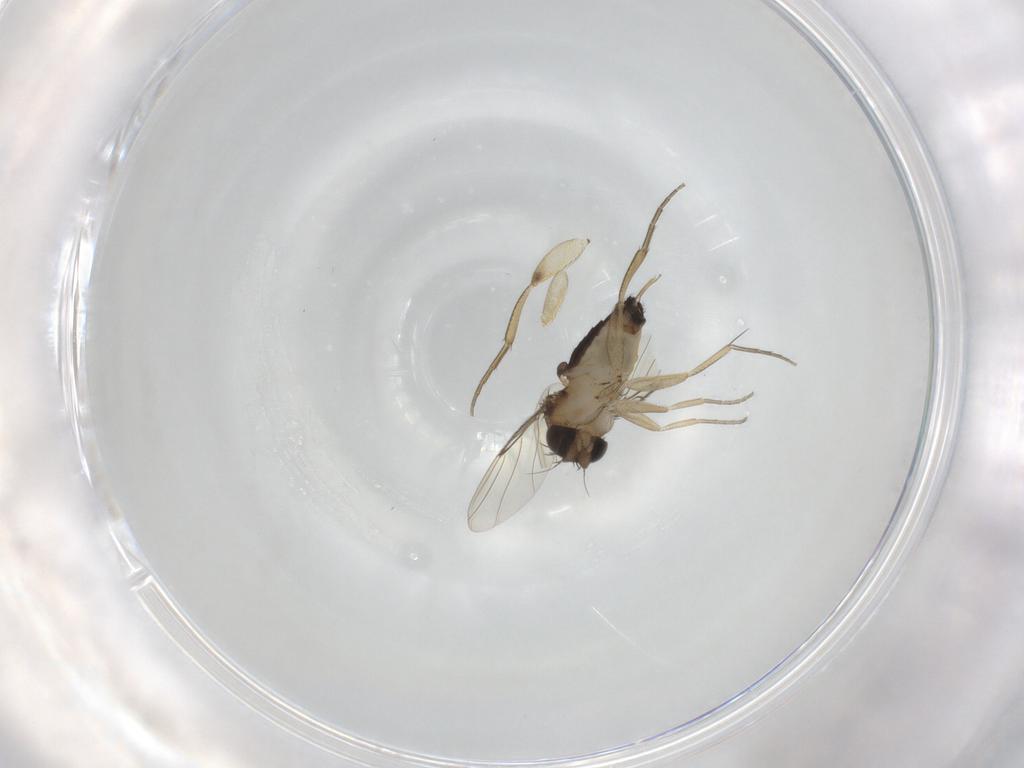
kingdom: Animalia
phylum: Arthropoda
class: Insecta
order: Diptera
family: Phoridae
